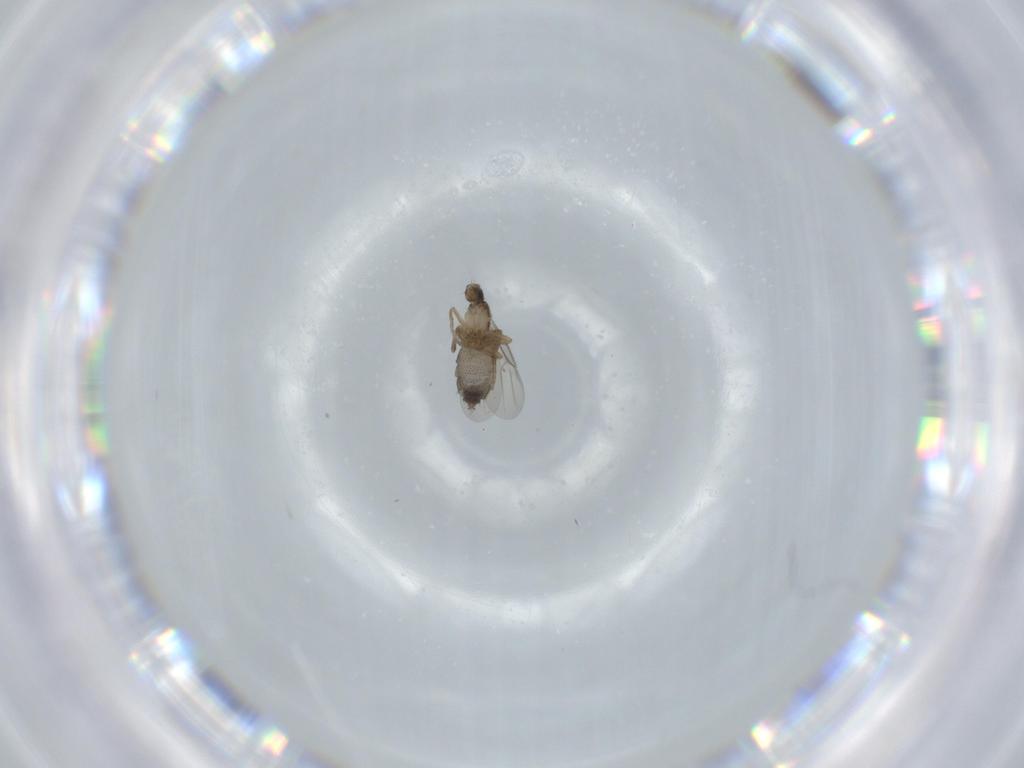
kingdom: Animalia
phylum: Arthropoda
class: Insecta
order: Diptera
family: Phoridae
